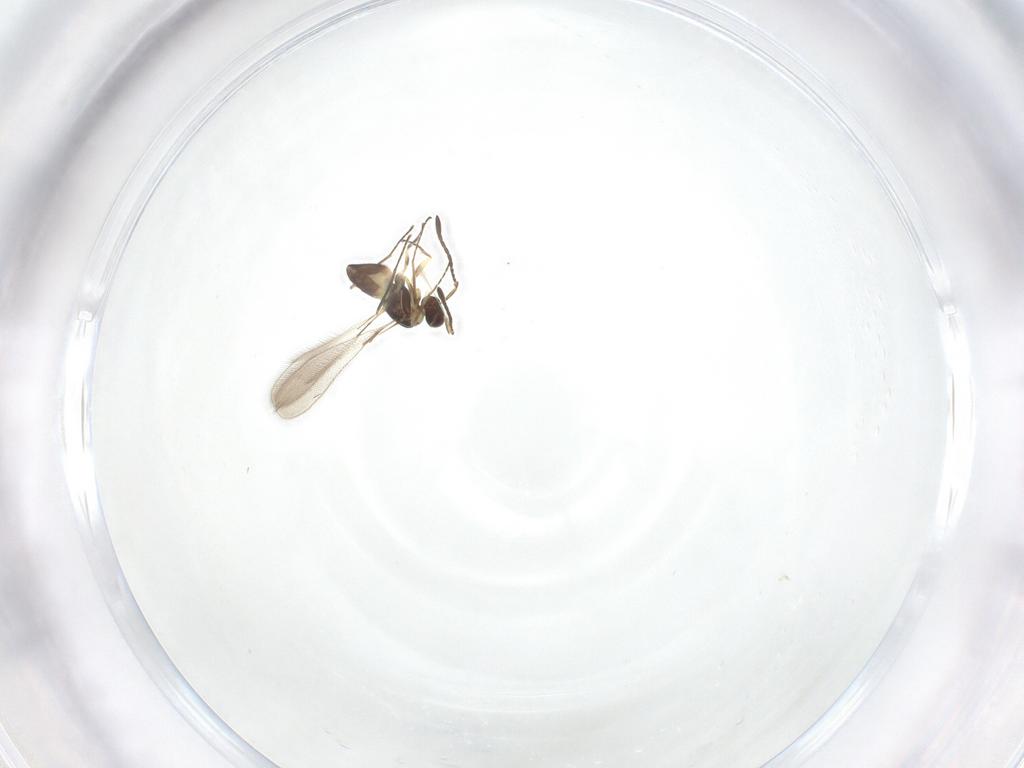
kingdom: Animalia
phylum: Arthropoda
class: Insecta
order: Hymenoptera
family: Mymaridae
